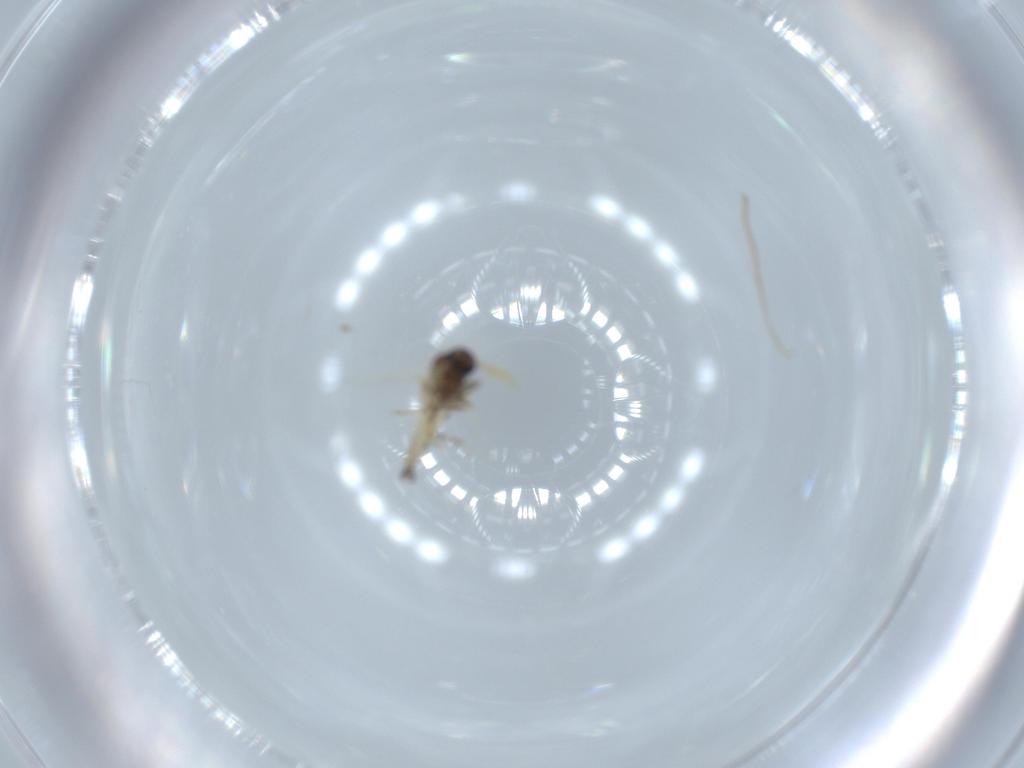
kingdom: Animalia
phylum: Arthropoda
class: Insecta
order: Diptera
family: Ceratopogonidae
